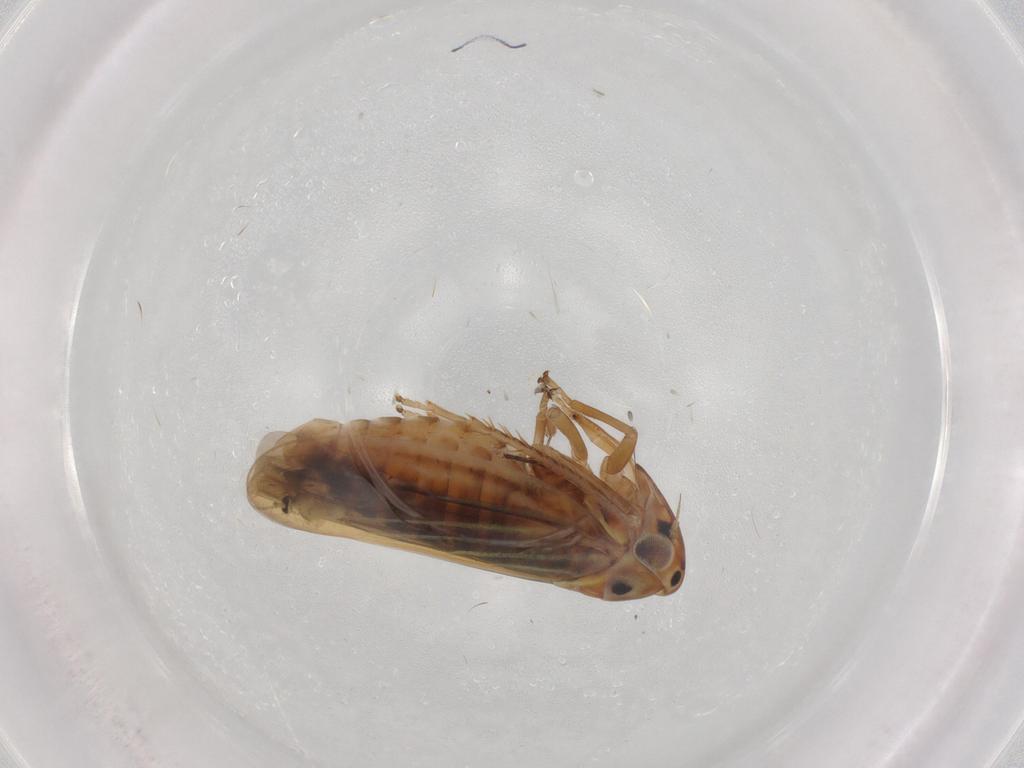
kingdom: Animalia
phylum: Arthropoda
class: Insecta
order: Hemiptera
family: Cicadellidae
